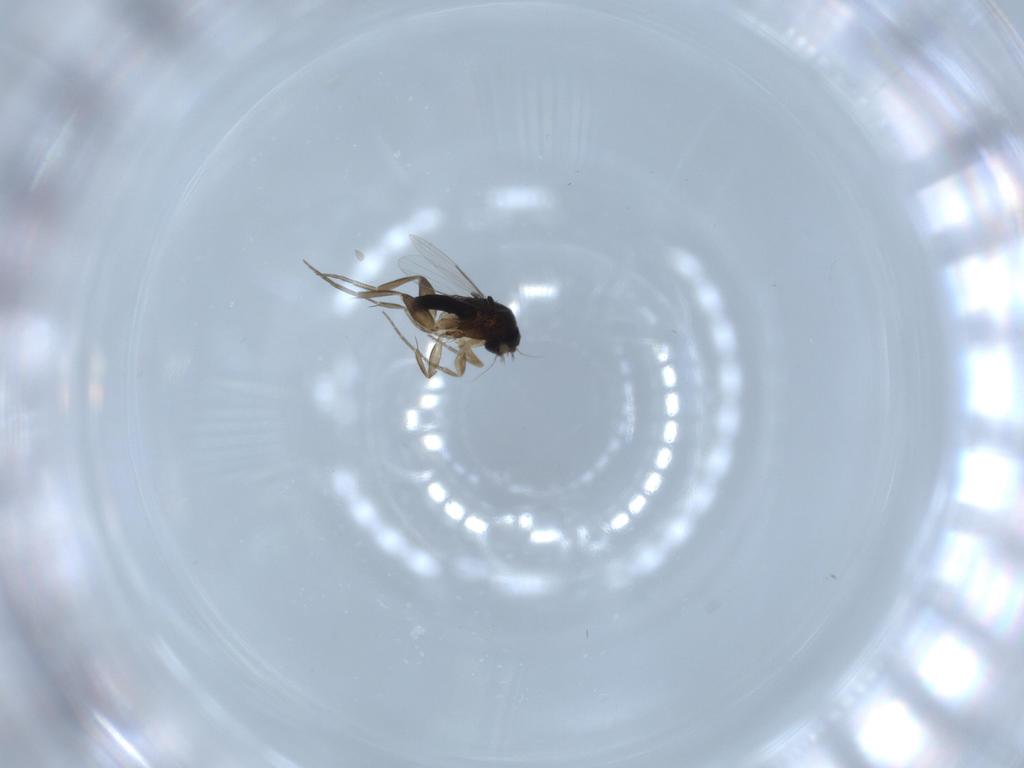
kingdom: Animalia
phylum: Arthropoda
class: Insecta
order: Diptera
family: Phoridae
